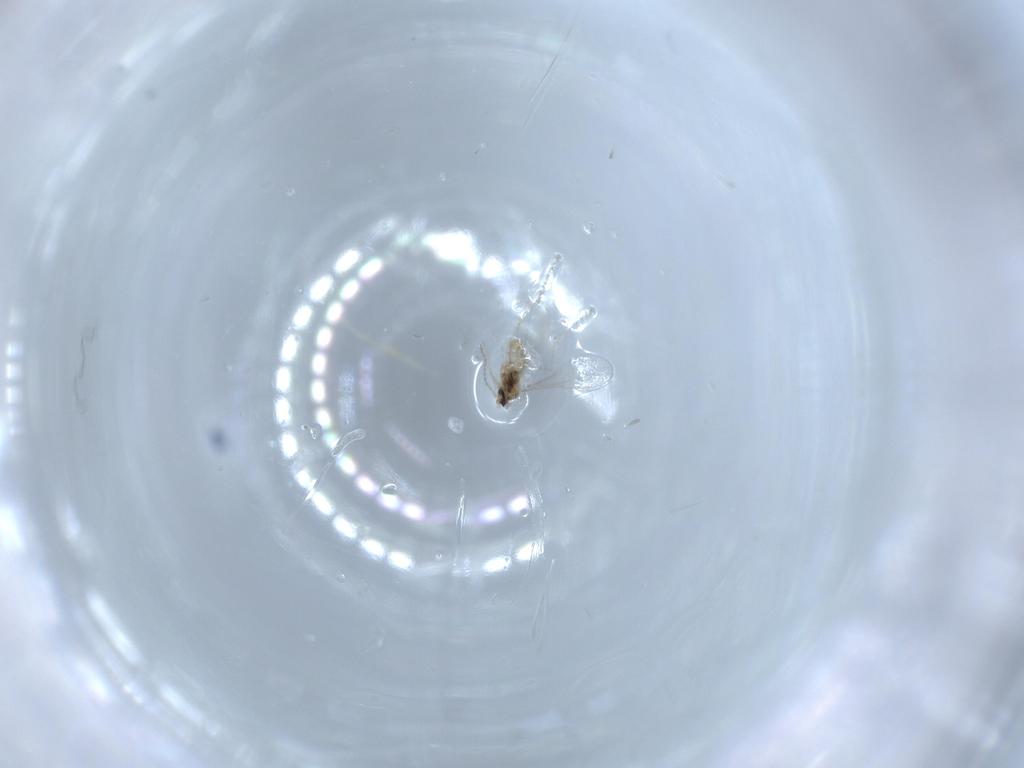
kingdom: Animalia
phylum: Arthropoda
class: Insecta
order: Diptera
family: Cecidomyiidae
